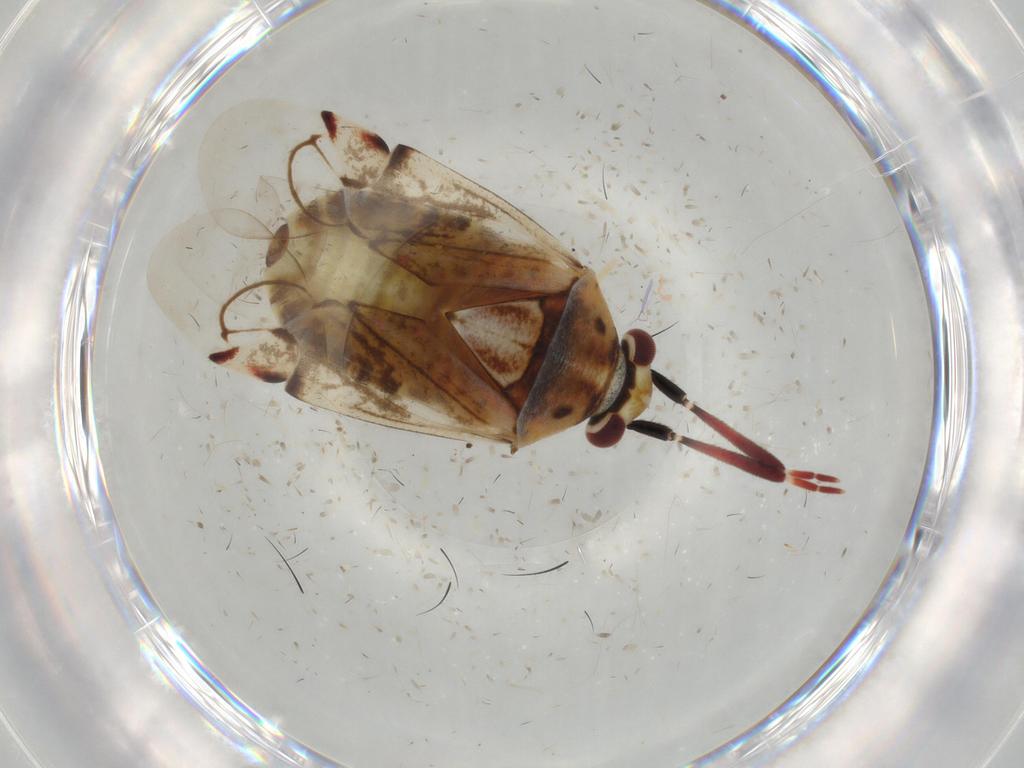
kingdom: Animalia
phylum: Arthropoda
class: Insecta
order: Hemiptera
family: Miridae
